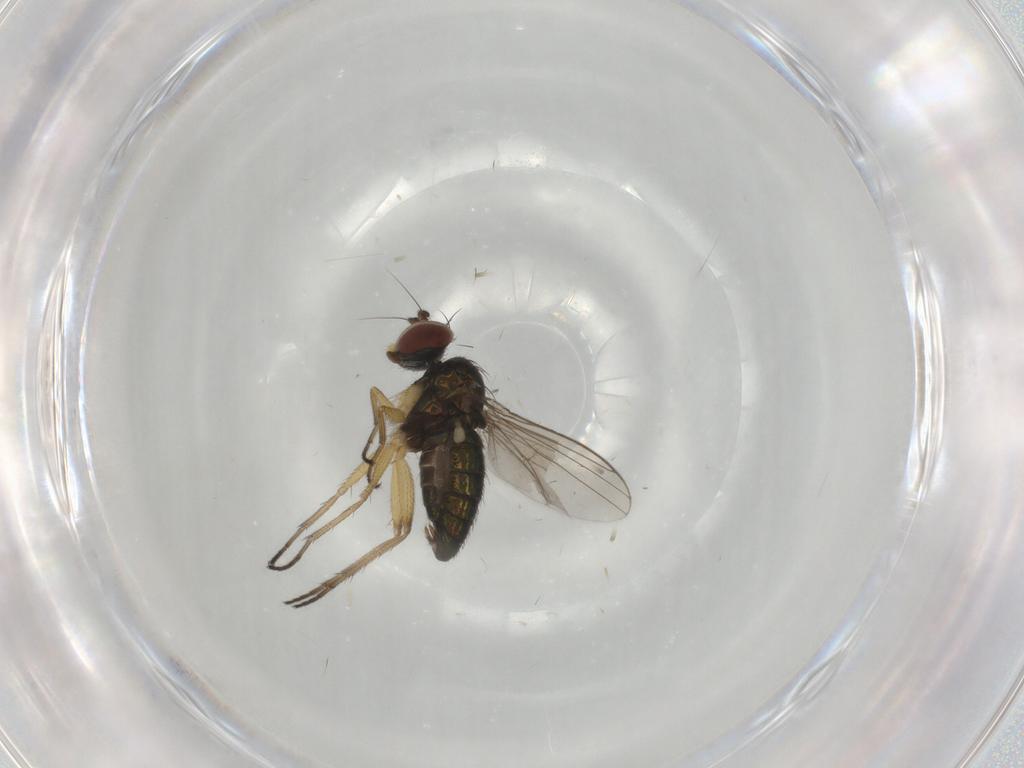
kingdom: Animalia
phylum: Arthropoda
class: Insecta
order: Diptera
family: Dolichopodidae
